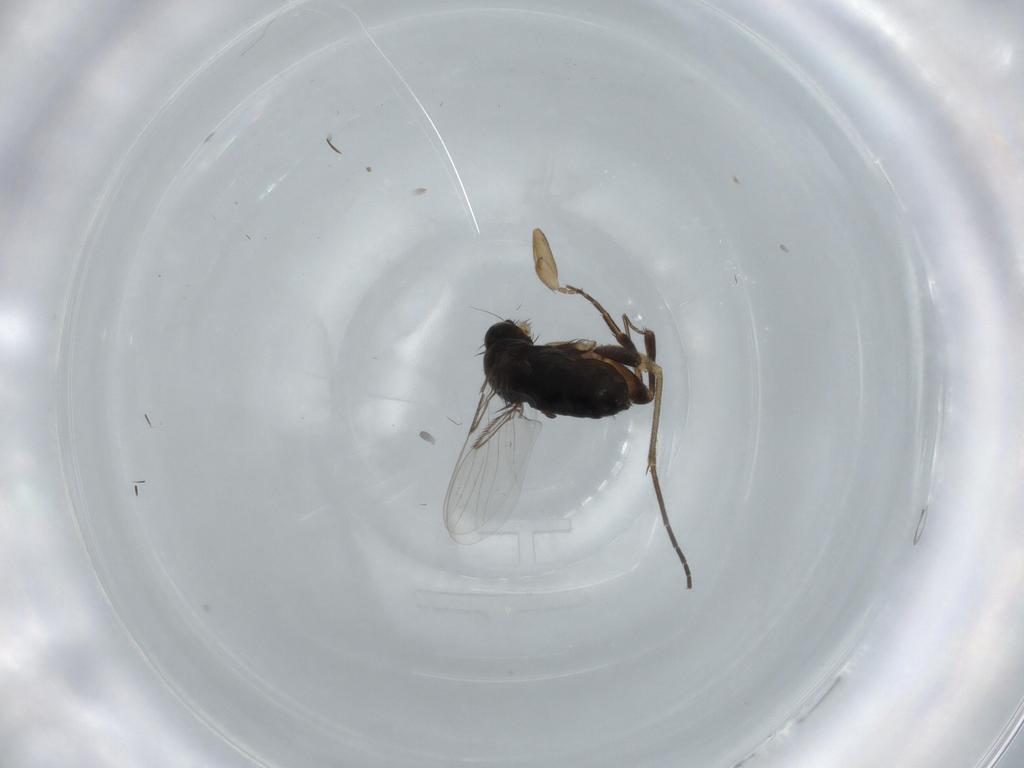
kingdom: Animalia
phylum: Arthropoda
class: Insecta
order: Diptera
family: Phoridae
